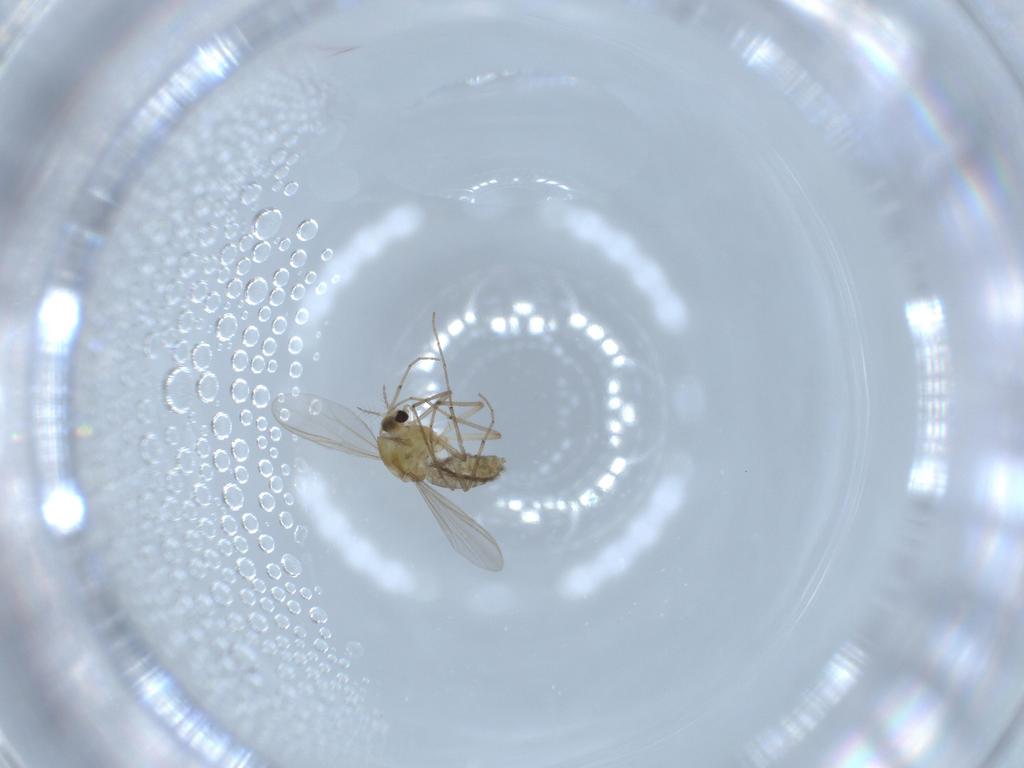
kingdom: Animalia
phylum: Arthropoda
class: Insecta
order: Diptera
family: Chironomidae
